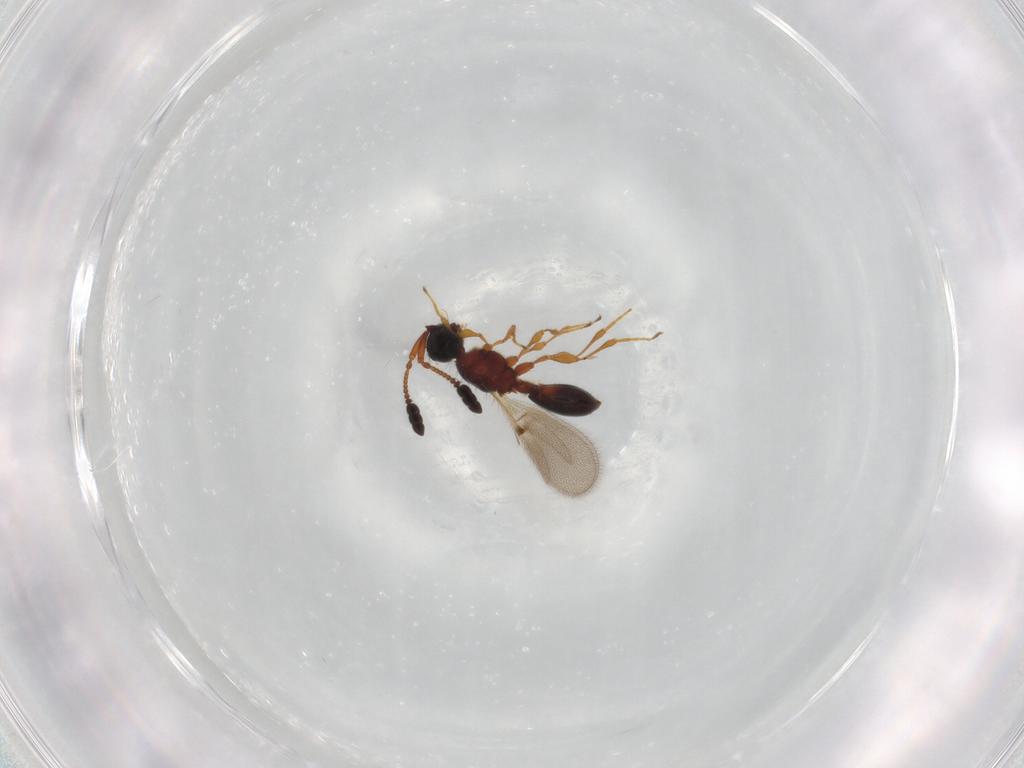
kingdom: Animalia
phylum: Arthropoda
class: Insecta
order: Hymenoptera
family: Diapriidae
